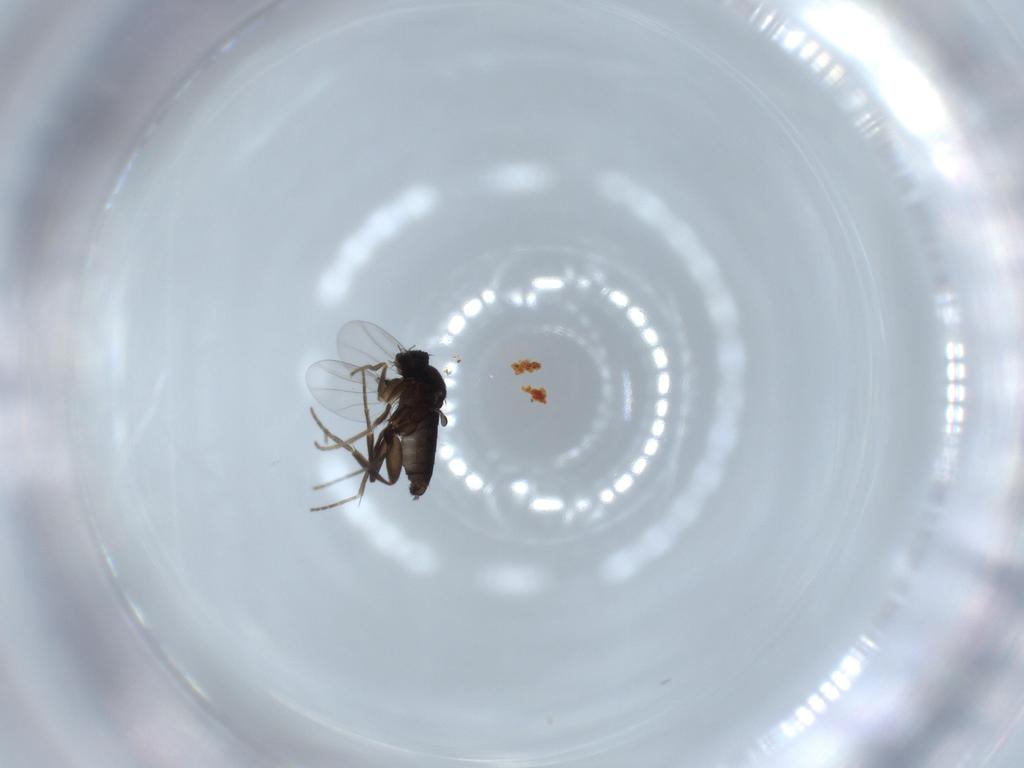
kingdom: Animalia
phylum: Arthropoda
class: Insecta
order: Diptera
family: Phoridae
